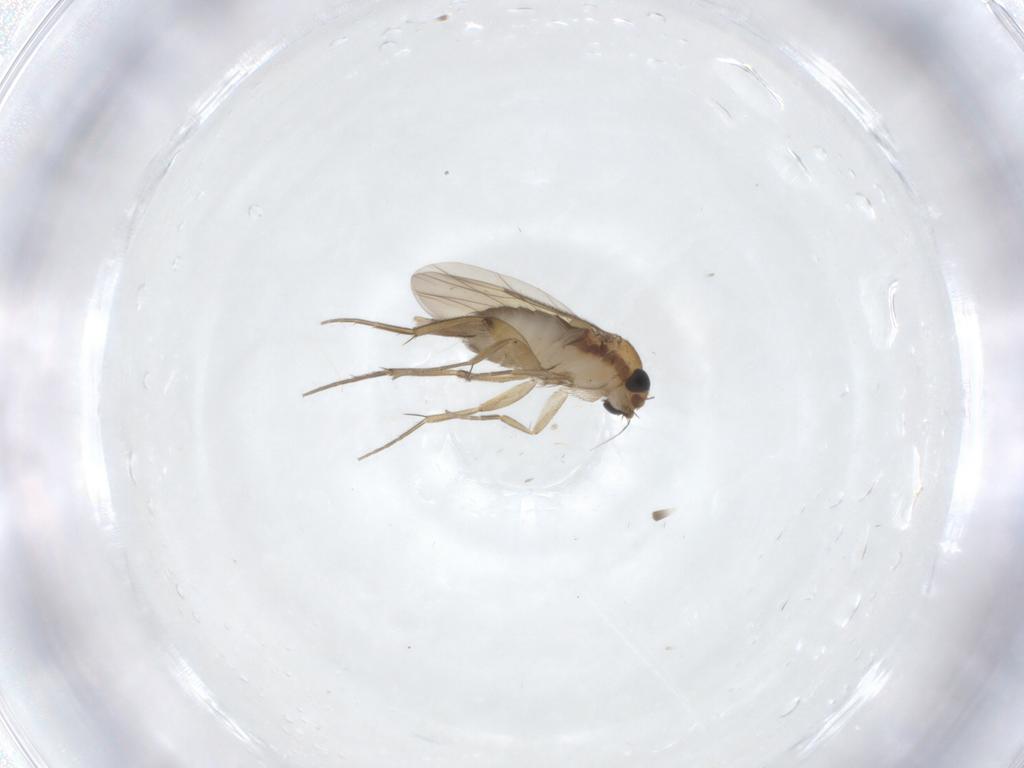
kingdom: Animalia
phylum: Arthropoda
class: Insecta
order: Diptera
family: Phoridae
